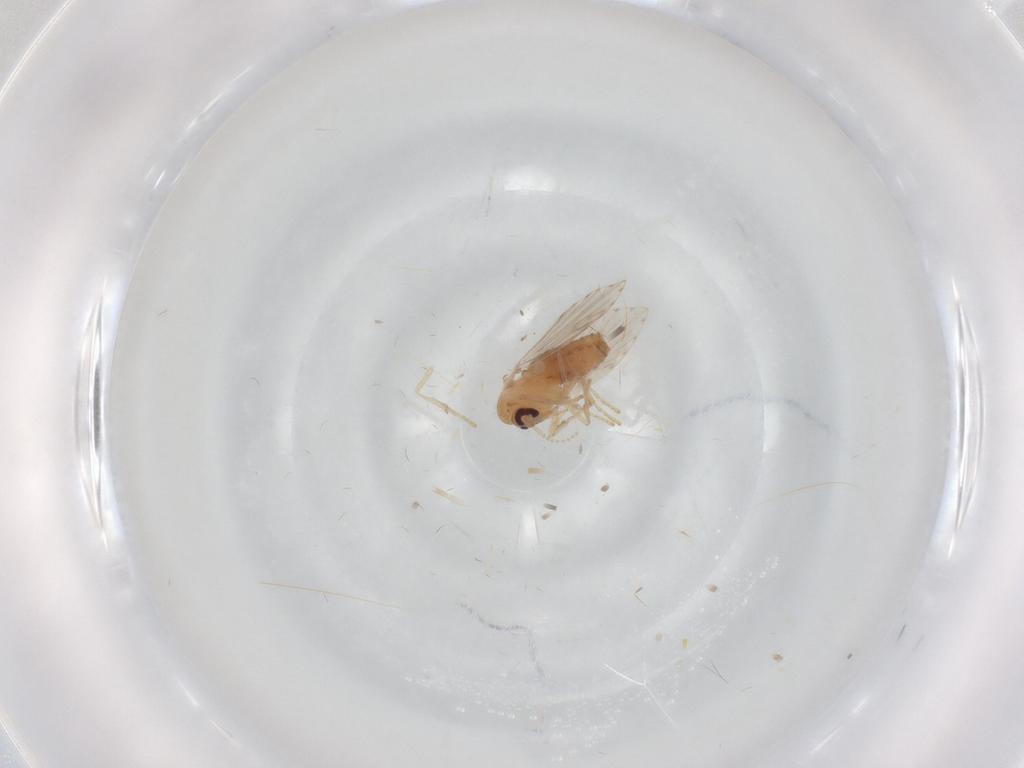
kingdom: Animalia
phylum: Arthropoda
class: Insecta
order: Diptera
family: Psychodidae
